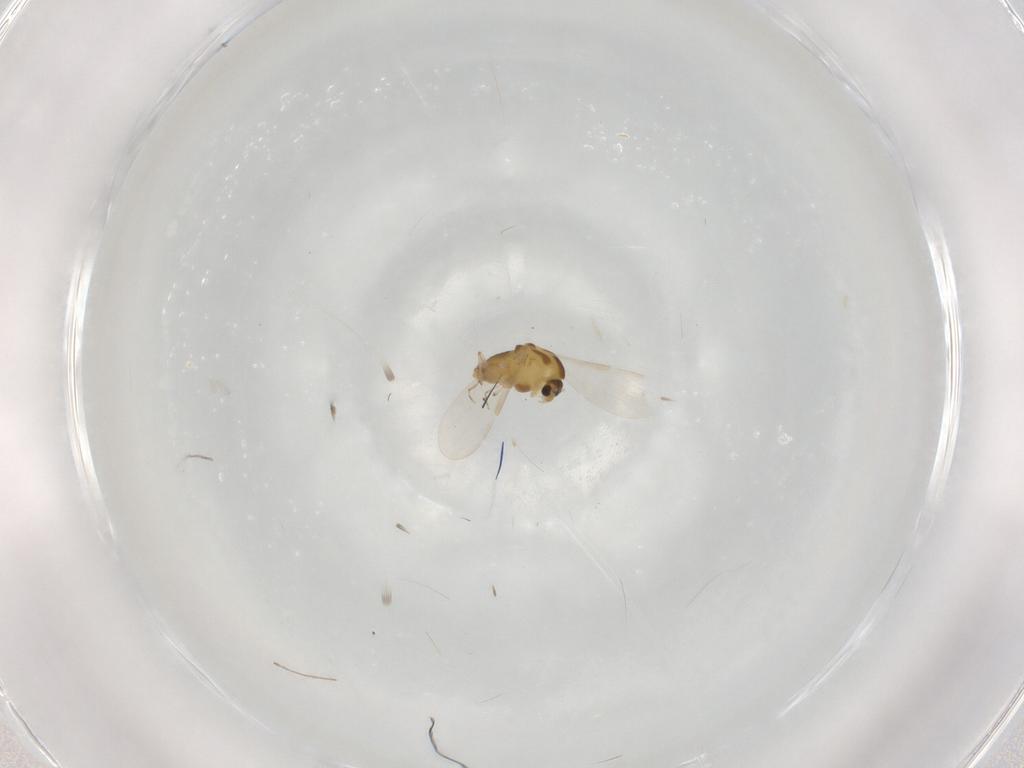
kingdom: Animalia
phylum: Arthropoda
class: Insecta
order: Diptera
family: Chironomidae
